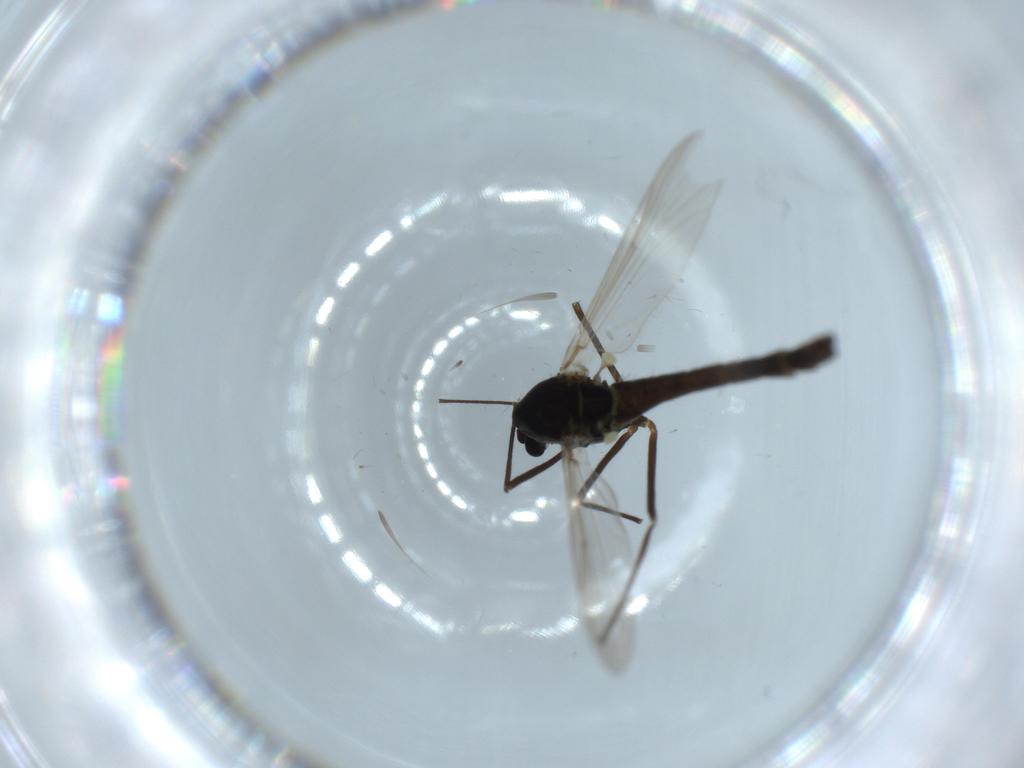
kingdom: Animalia
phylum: Arthropoda
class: Insecta
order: Diptera
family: Chironomidae
